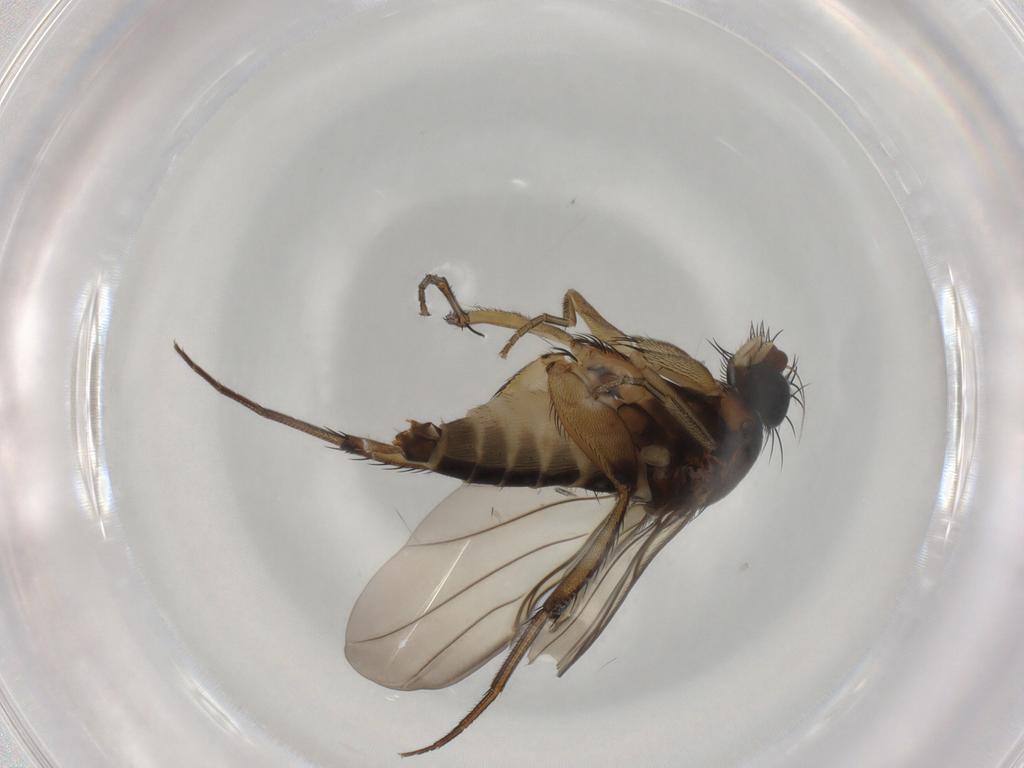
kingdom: Animalia
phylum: Arthropoda
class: Insecta
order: Diptera
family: Phoridae
